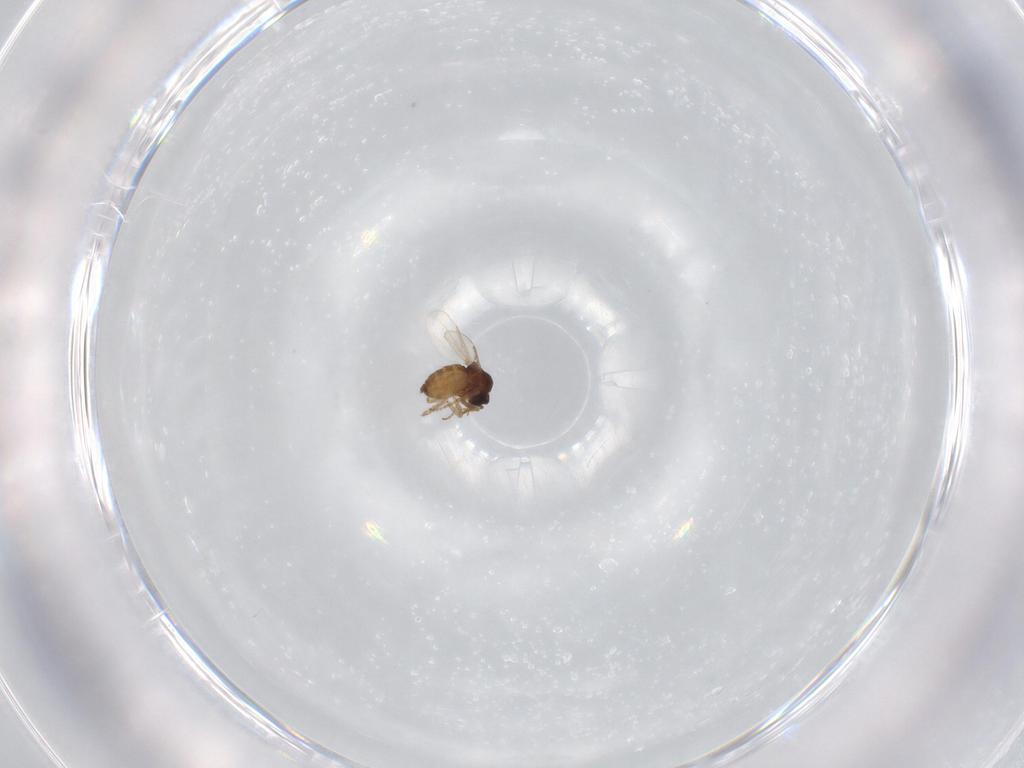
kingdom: Animalia
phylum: Arthropoda
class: Insecta
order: Diptera
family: Ceratopogonidae
